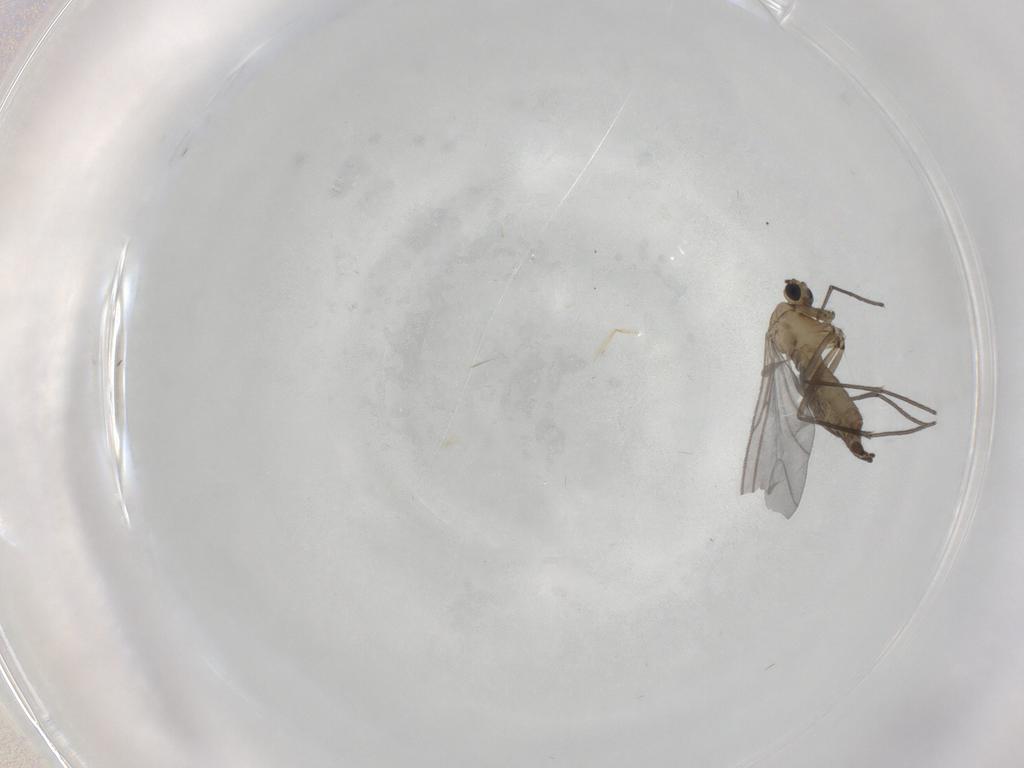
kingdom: Animalia
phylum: Arthropoda
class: Insecta
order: Diptera
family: Sciaridae
